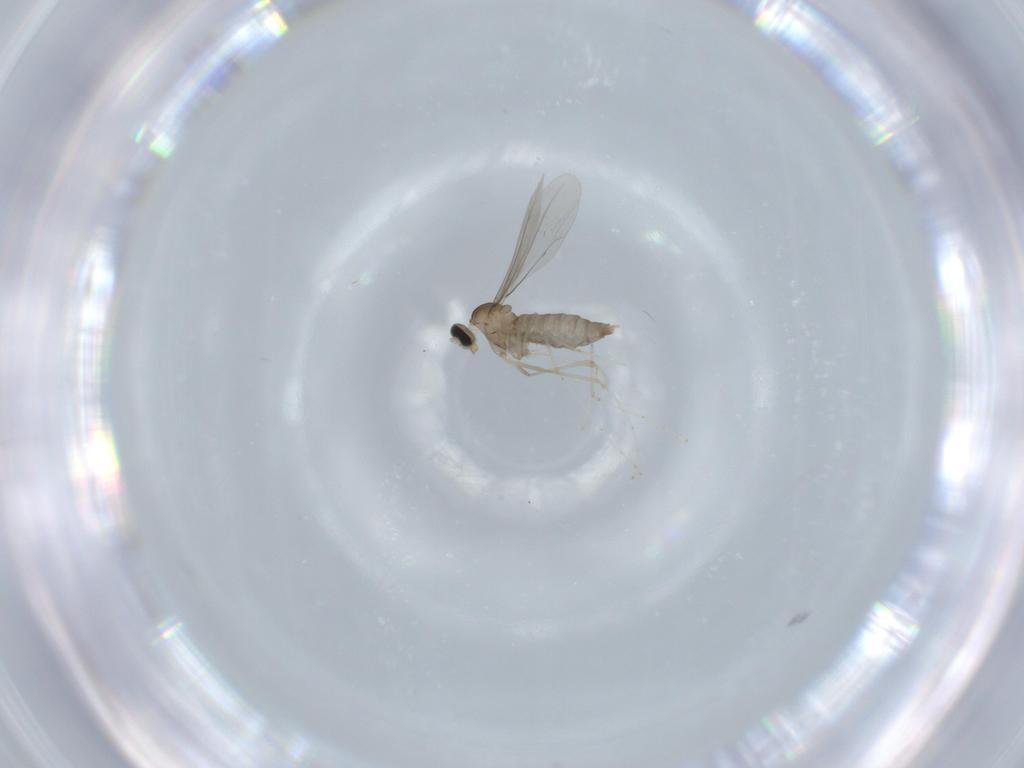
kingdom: Animalia
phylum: Arthropoda
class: Insecta
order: Diptera
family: Cecidomyiidae
